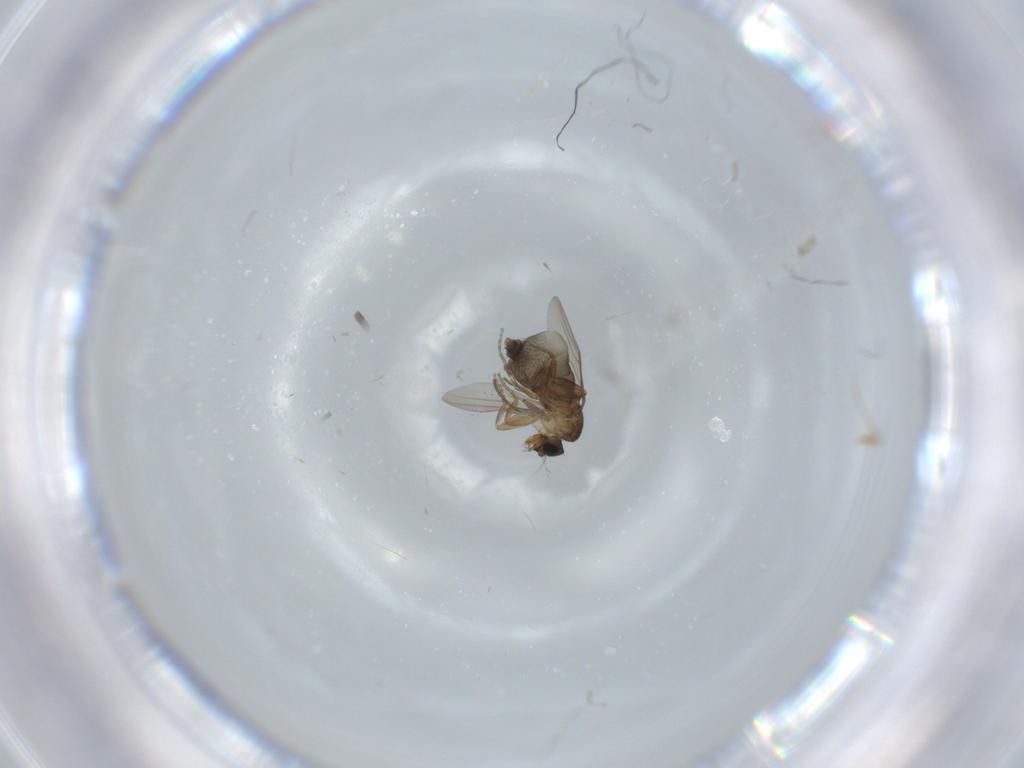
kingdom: Animalia
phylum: Arthropoda
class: Insecta
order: Diptera
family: Phoridae
